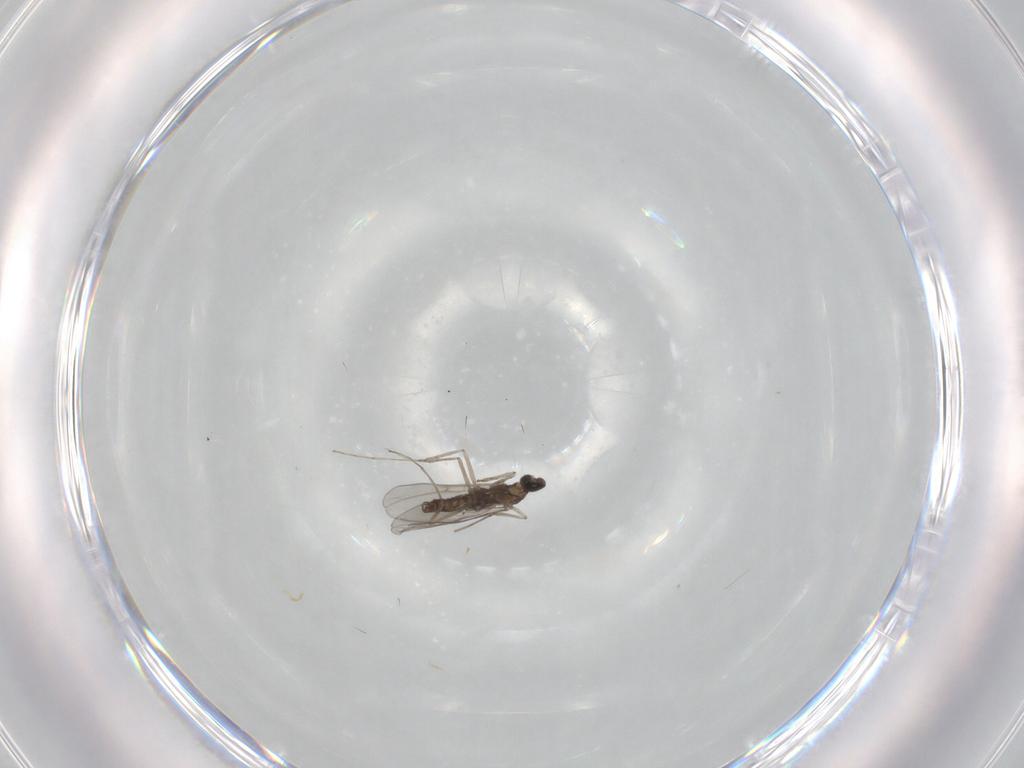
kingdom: Animalia
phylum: Arthropoda
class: Insecta
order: Diptera
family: Cecidomyiidae
